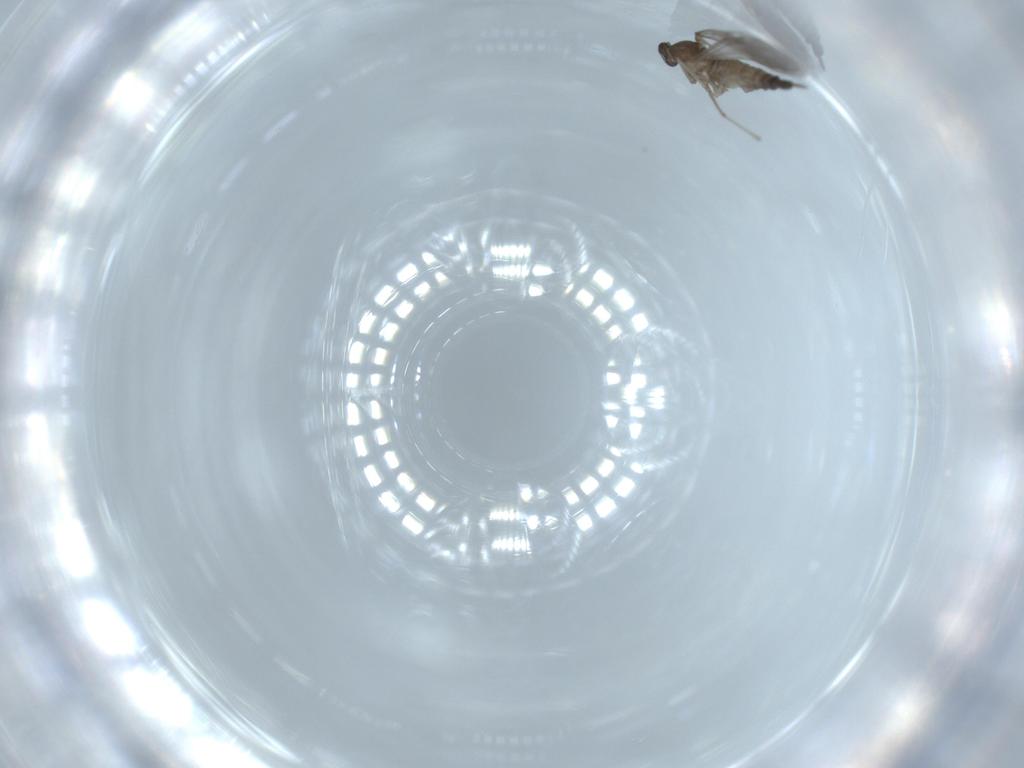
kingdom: Animalia
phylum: Arthropoda
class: Insecta
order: Diptera
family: Cecidomyiidae
